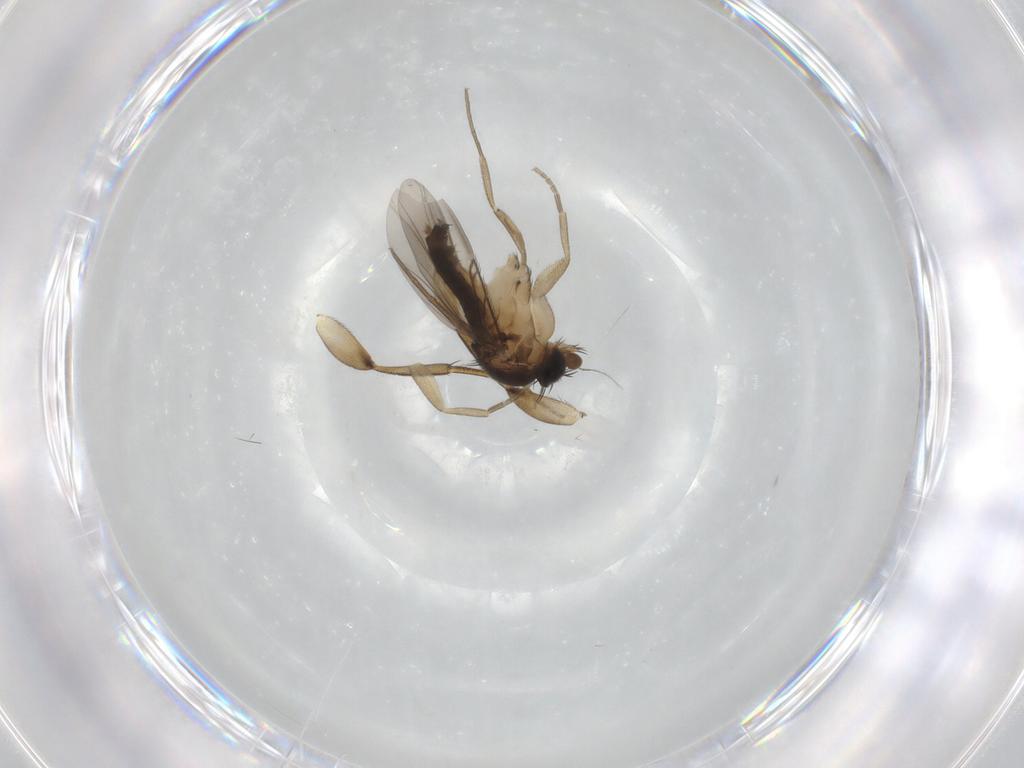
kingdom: Animalia
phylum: Arthropoda
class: Insecta
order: Diptera
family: Phoridae
